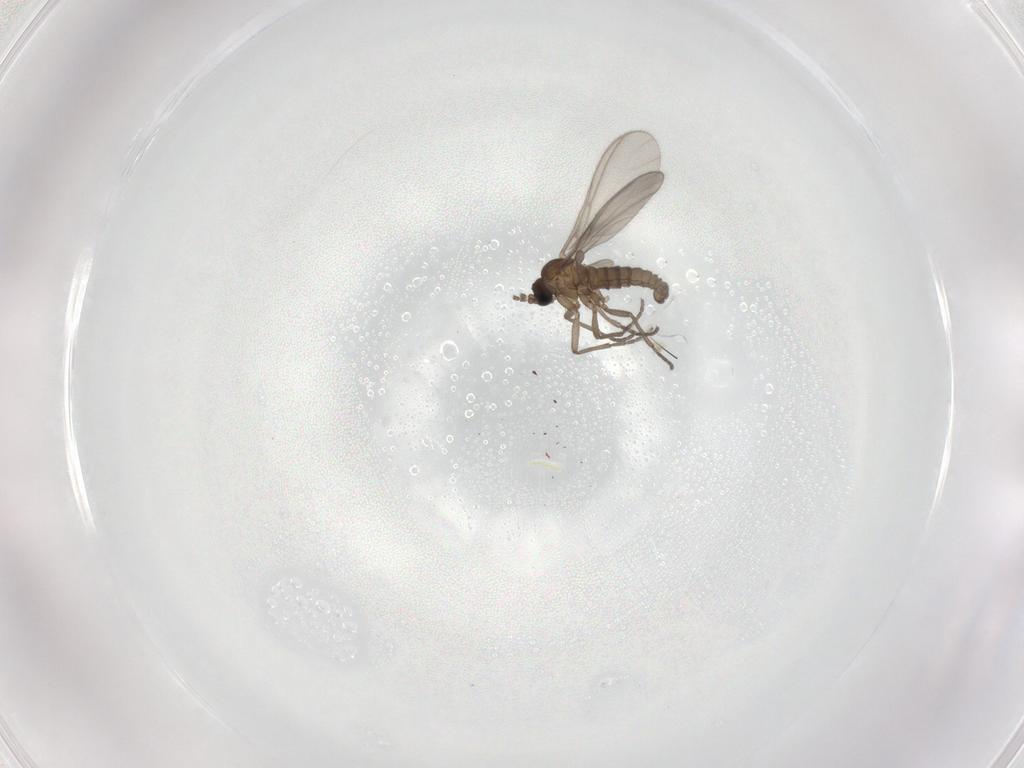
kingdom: Animalia
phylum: Arthropoda
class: Insecta
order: Diptera
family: Sciaridae
